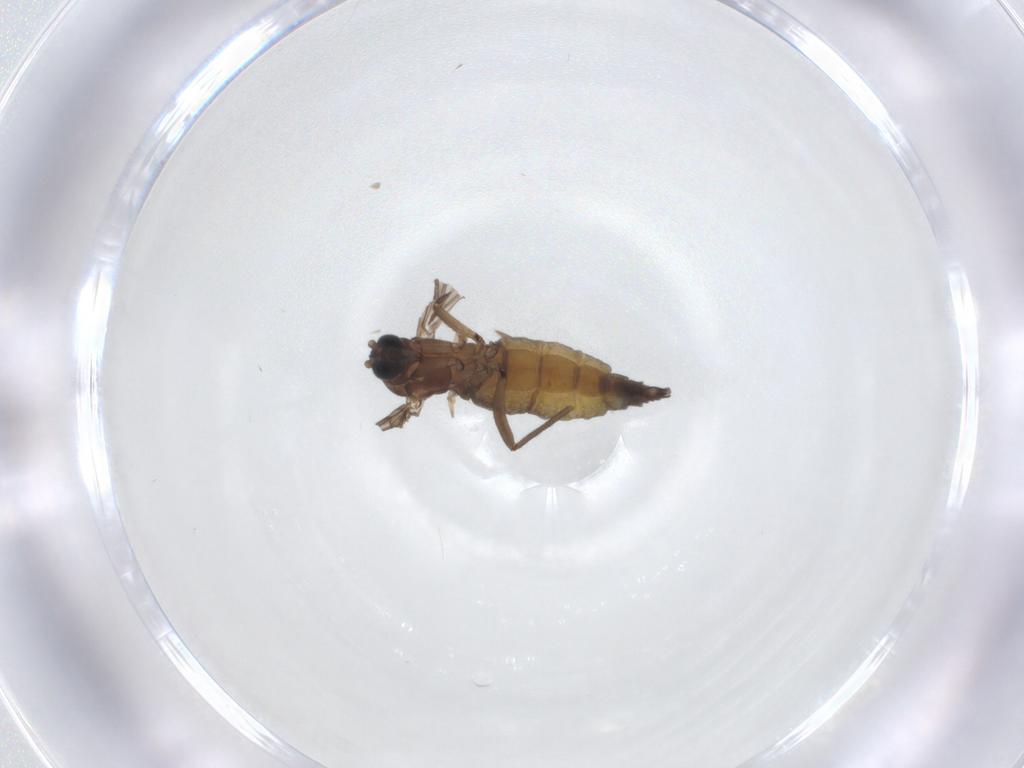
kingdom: Animalia
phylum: Arthropoda
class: Insecta
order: Diptera
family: Sciaridae
